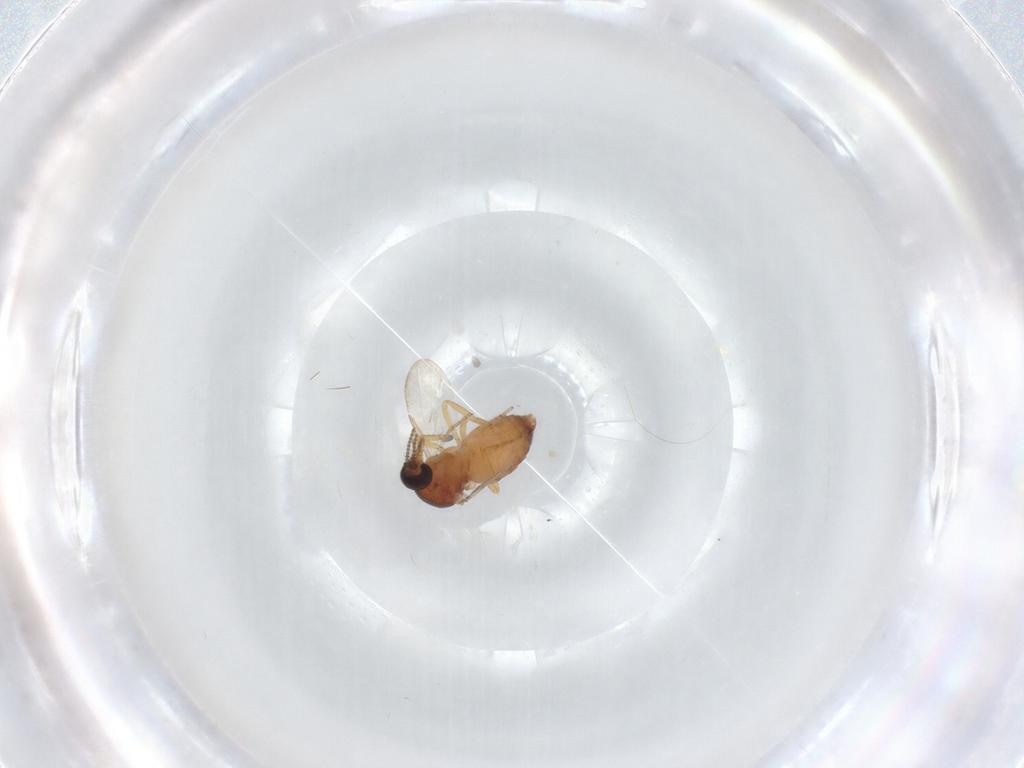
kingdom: Animalia
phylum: Arthropoda
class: Insecta
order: Diptera
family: Ceratopogonidae
